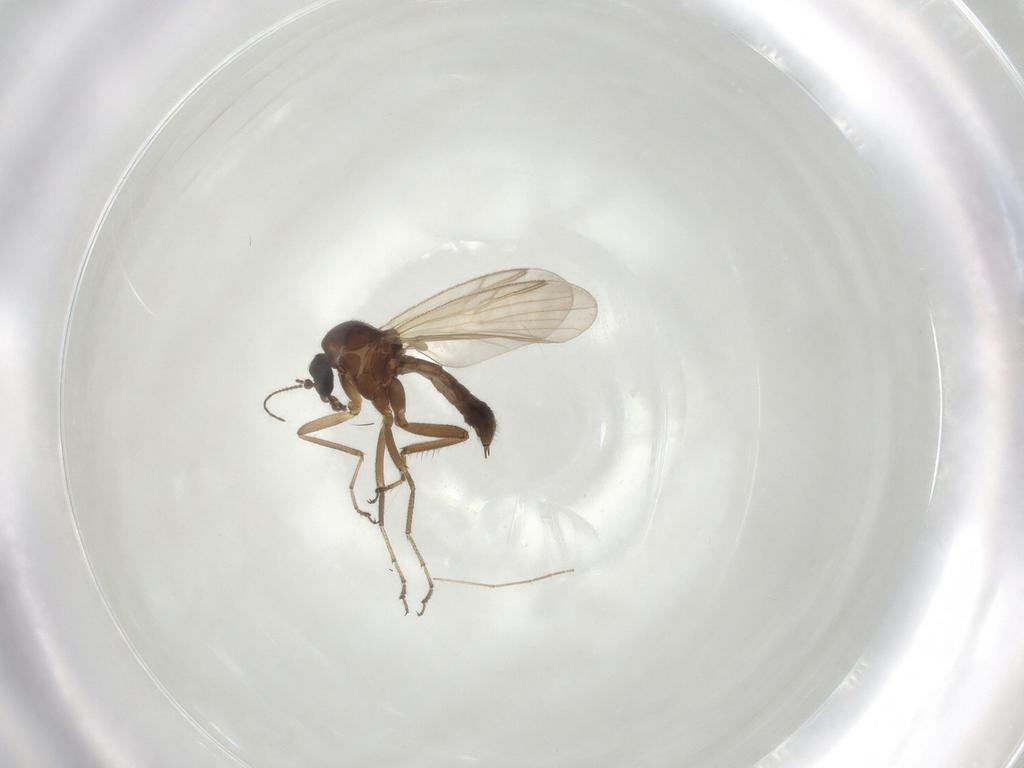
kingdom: Animalia
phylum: Arthropoda
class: Insecta
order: Diptera
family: Ceratopogonidae
